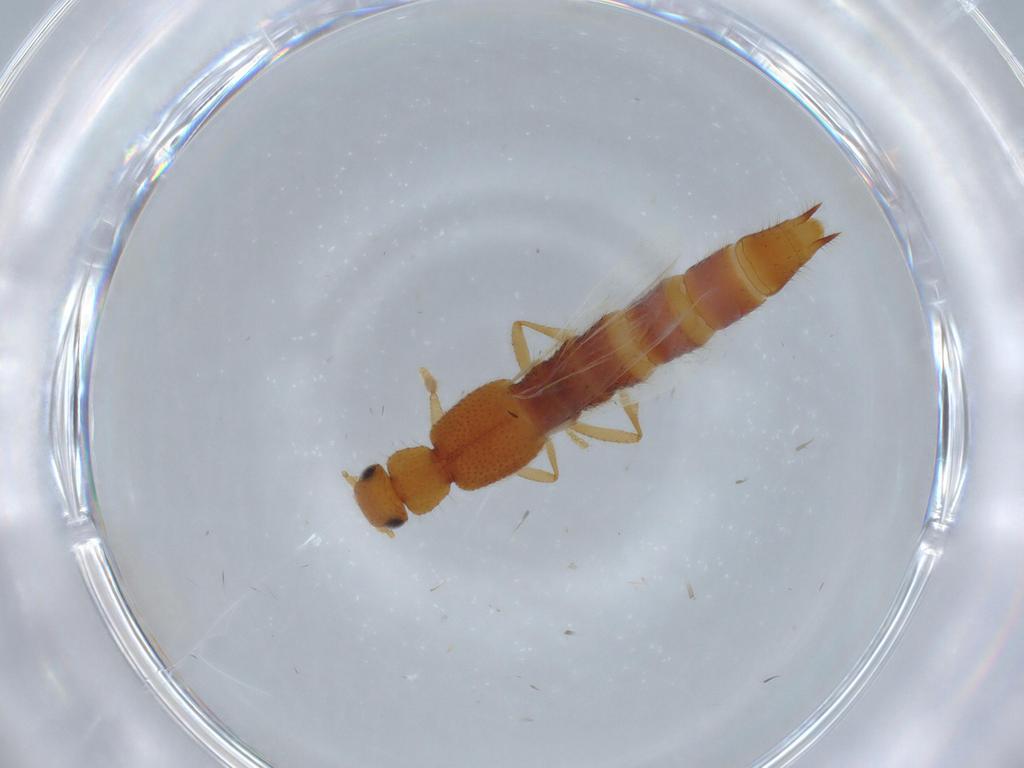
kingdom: Animalia
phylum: Arthropoda
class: Insecta
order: Coleoptera
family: Staphylinidae
